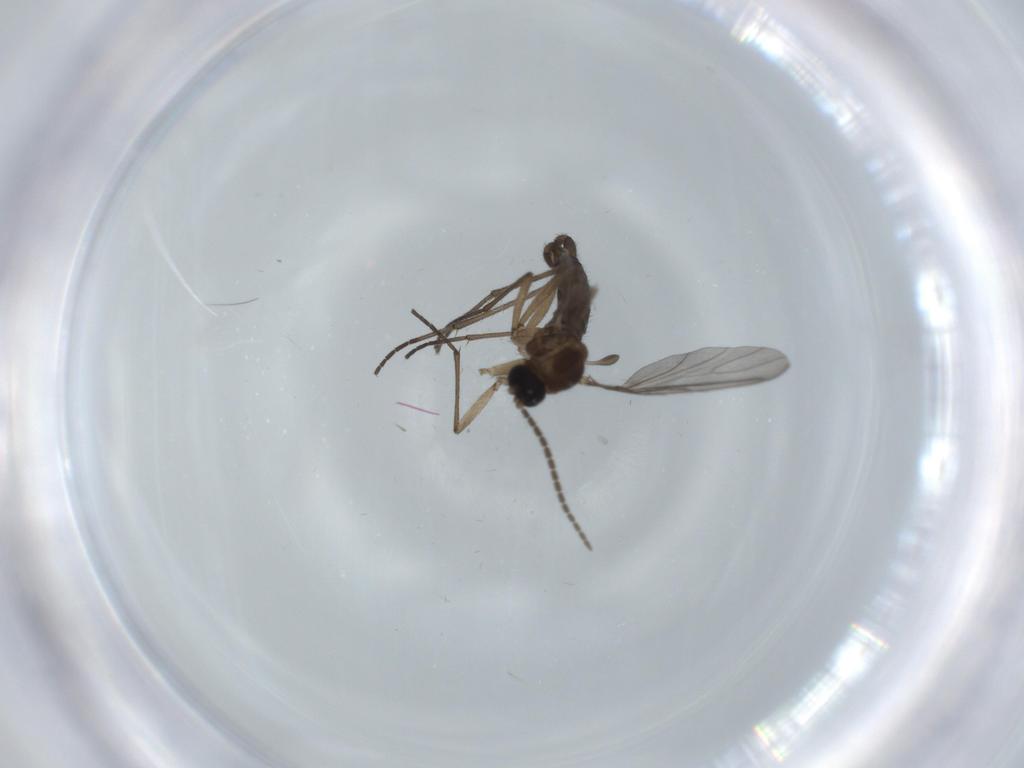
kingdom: Animalia
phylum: Arthropoda
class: Insecta
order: Diptera
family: Sciaridae
